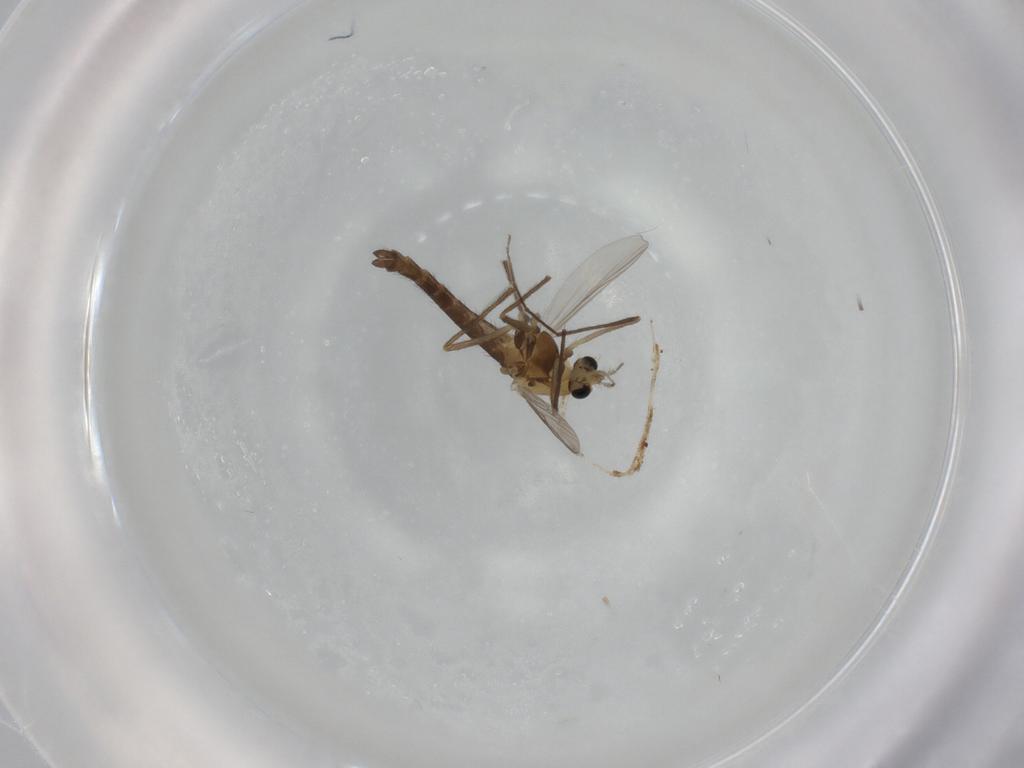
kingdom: Animalia
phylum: Arthropoda
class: Insecta
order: Diptera
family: Chironomidae
